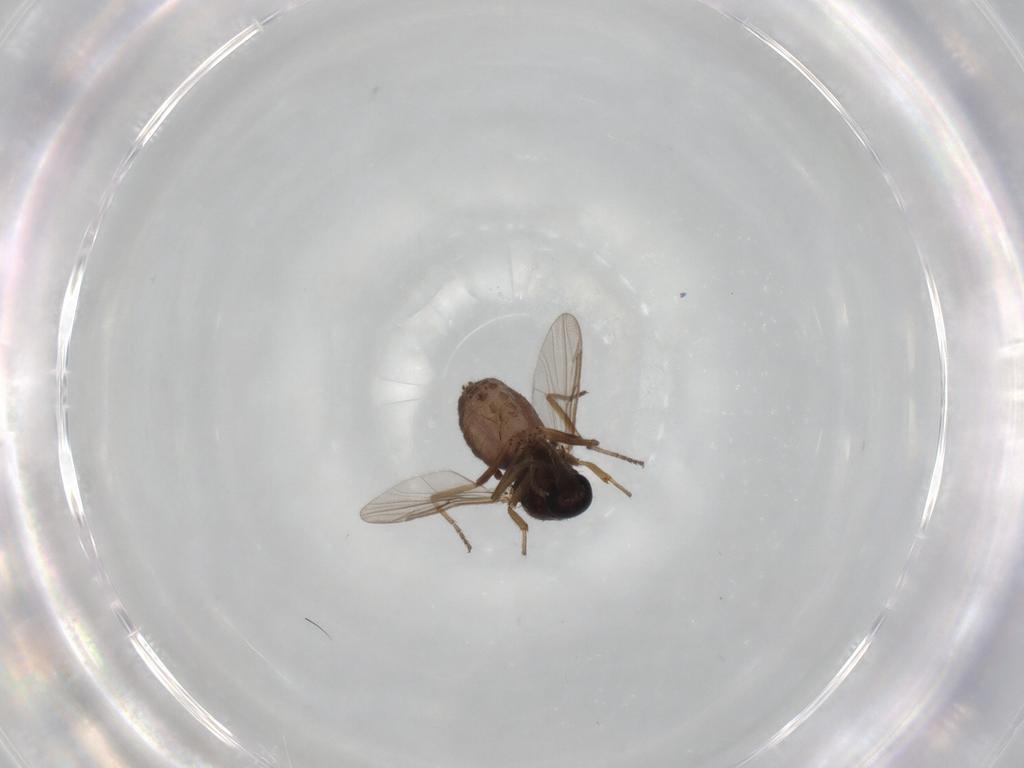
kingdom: Animalia
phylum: Arthropoda
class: Insecta
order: Diptera
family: Ceratopogonidae
